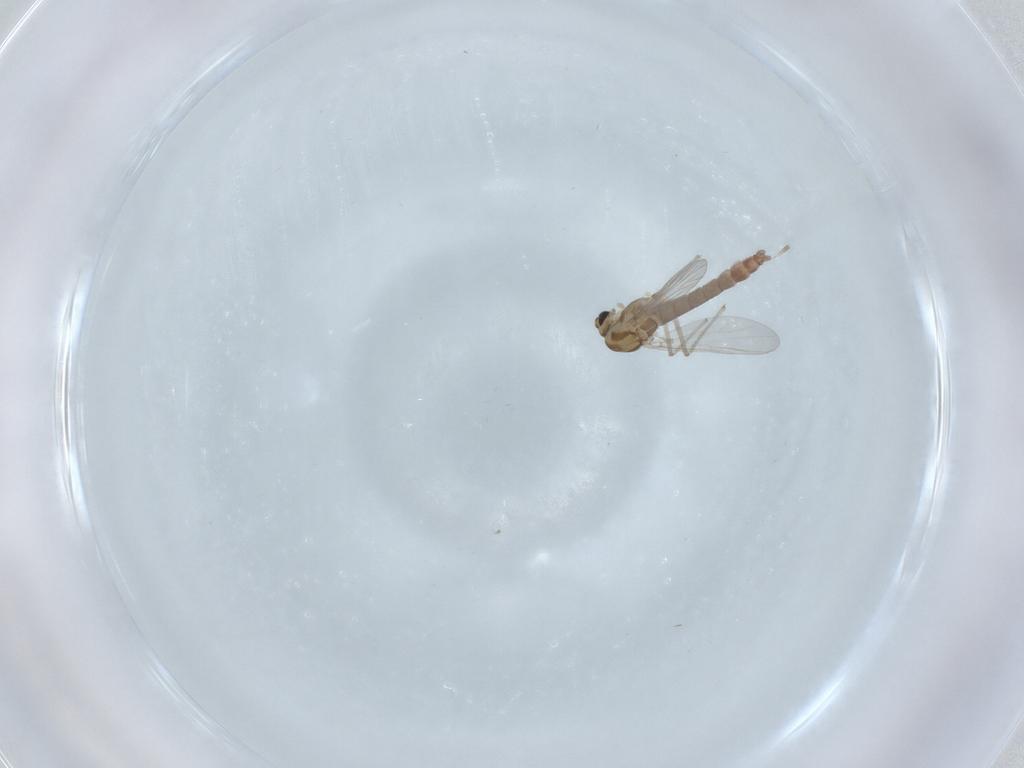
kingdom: Animalia
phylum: Arthropoda
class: Insecta
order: Diptera
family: Chironomidae
